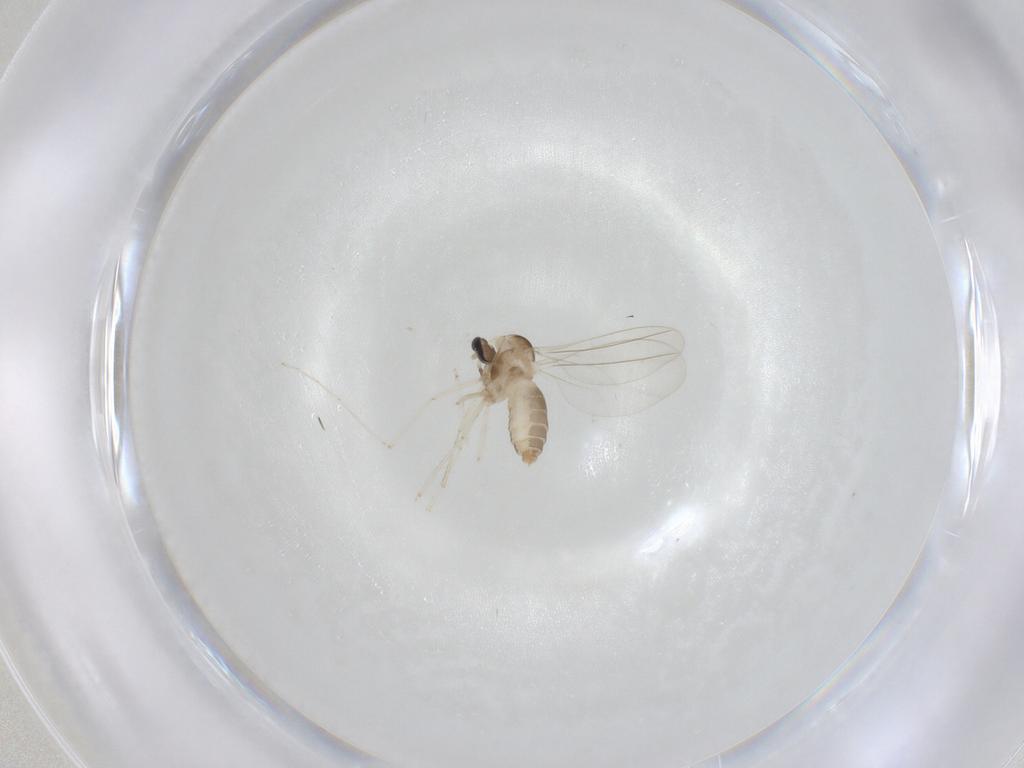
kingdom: Animalia
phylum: Arthropoda
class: Insecta
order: Diptera
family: Cecidomyiidae
